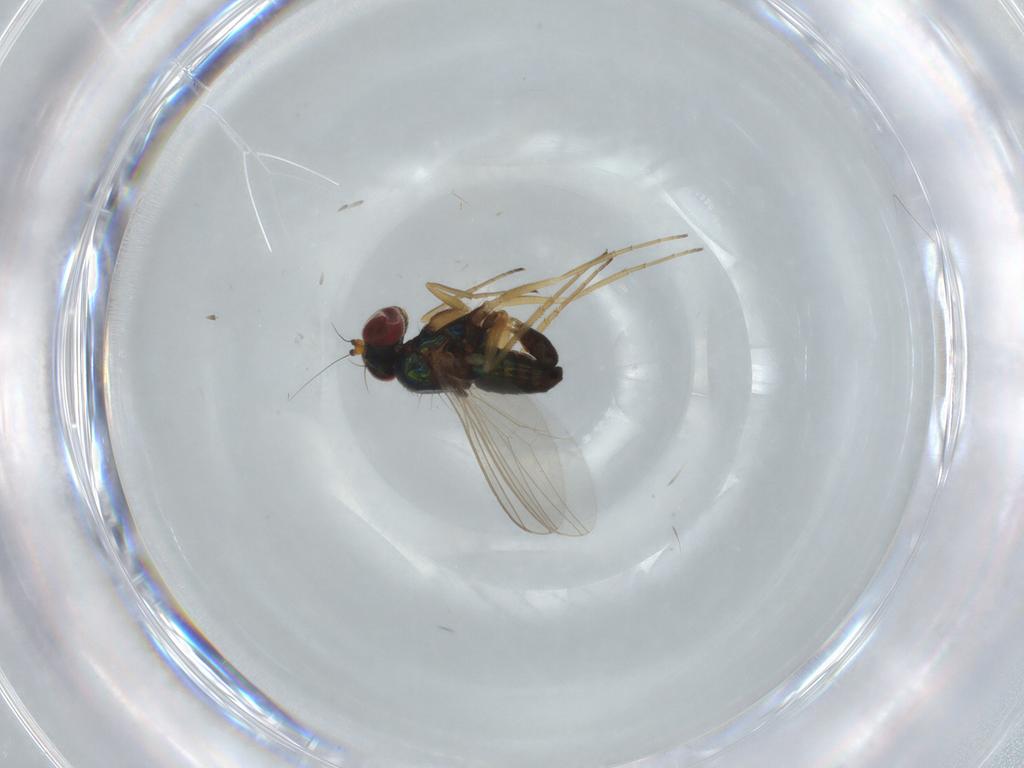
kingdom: Animalia
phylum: Arthropoda
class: Insecta
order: Diptera
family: Dolichopodidae
